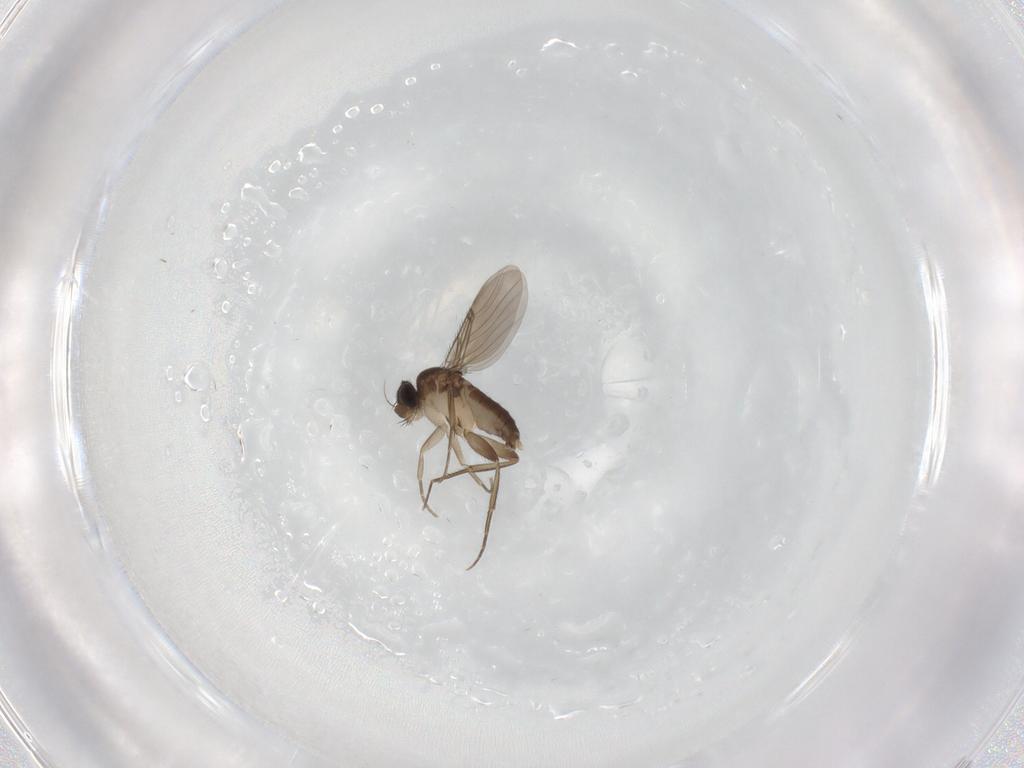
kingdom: Animalia
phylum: Arthropoda
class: Insecta
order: Diptera
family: Phoridae
